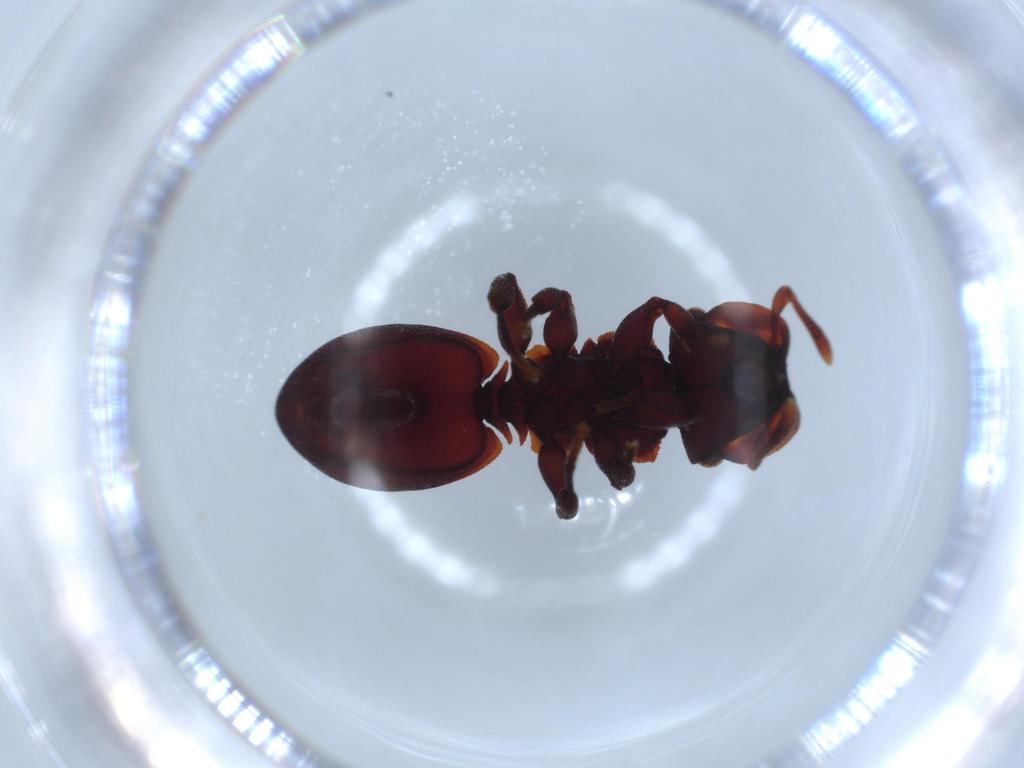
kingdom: Animalia
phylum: Arthropoda
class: Insecta
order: Hymenoptera
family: Formicidae
